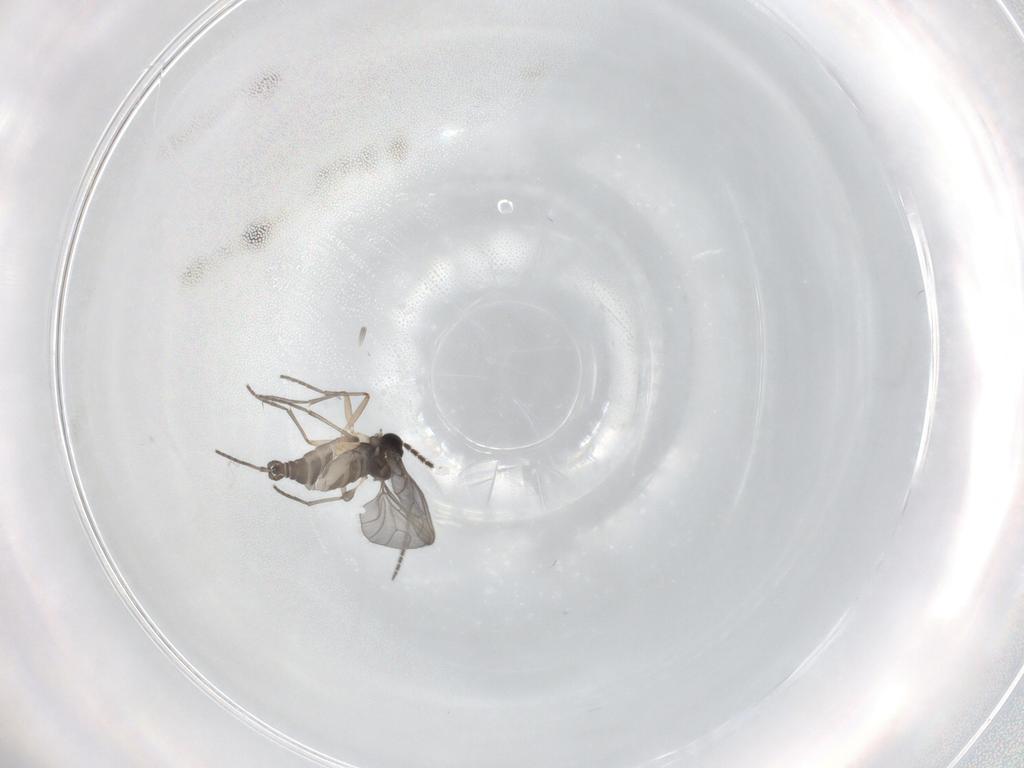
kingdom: Animalia
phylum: Arthropoda
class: Insecta
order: Diptera
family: Sciaridae
